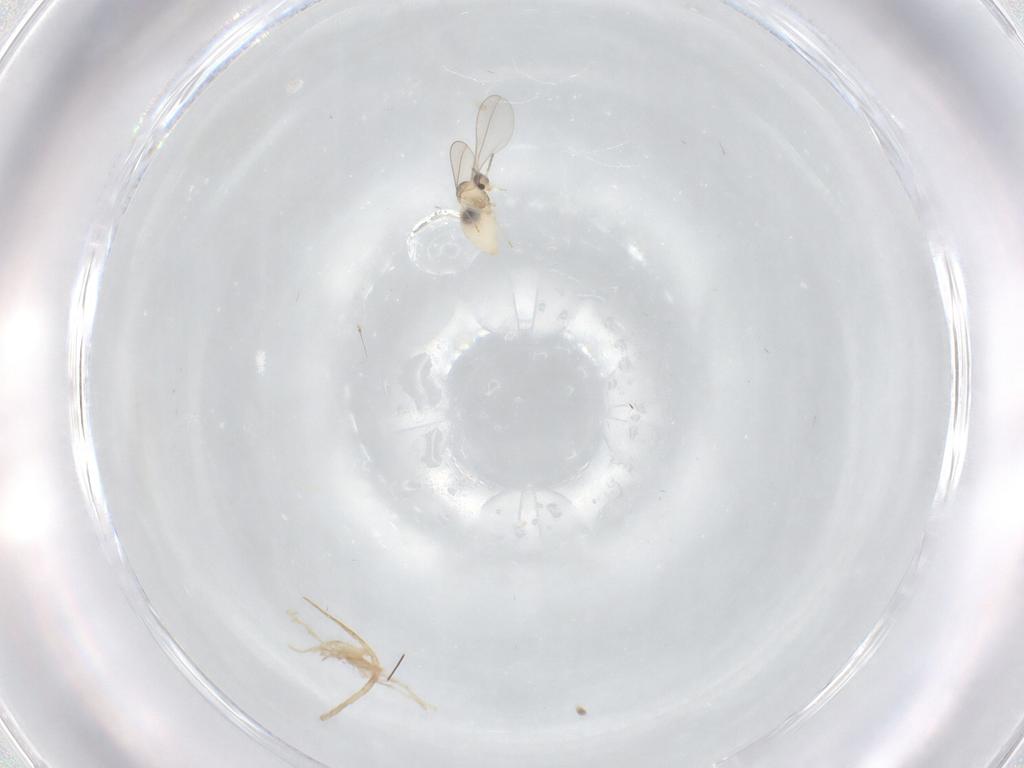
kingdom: Animalia
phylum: Arthropoda
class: Insecta
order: Diptera
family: Cecidomyiidae
